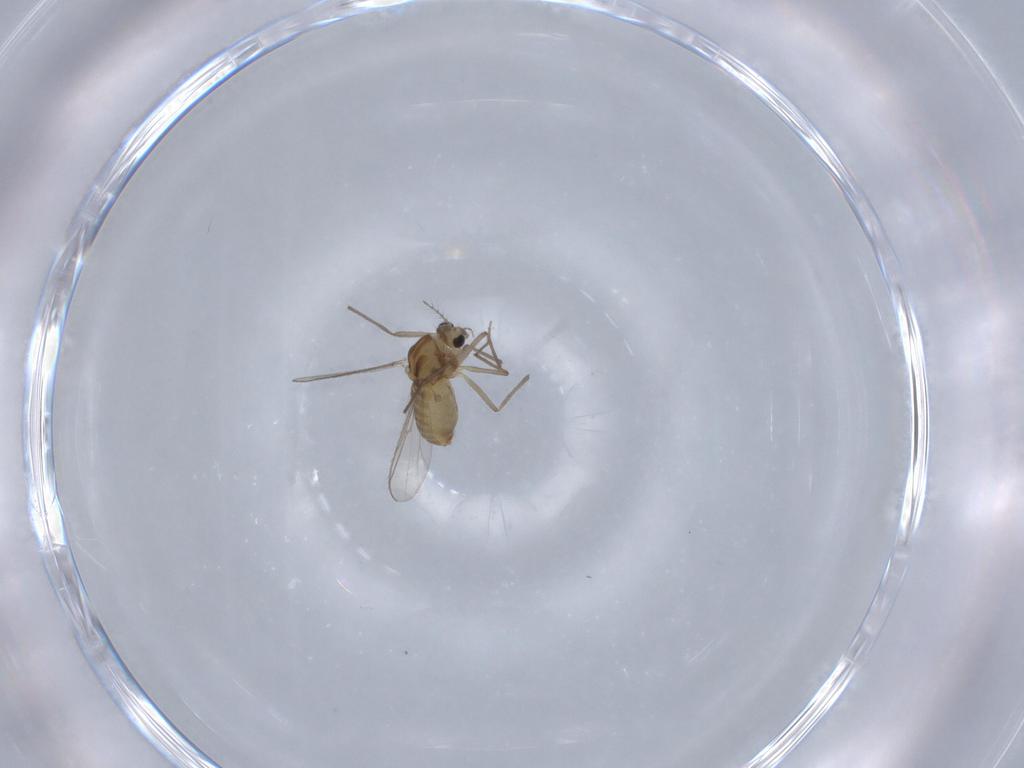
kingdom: Animalia
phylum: Arthropoda
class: Insecta
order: Diptera
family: Chironomidae
